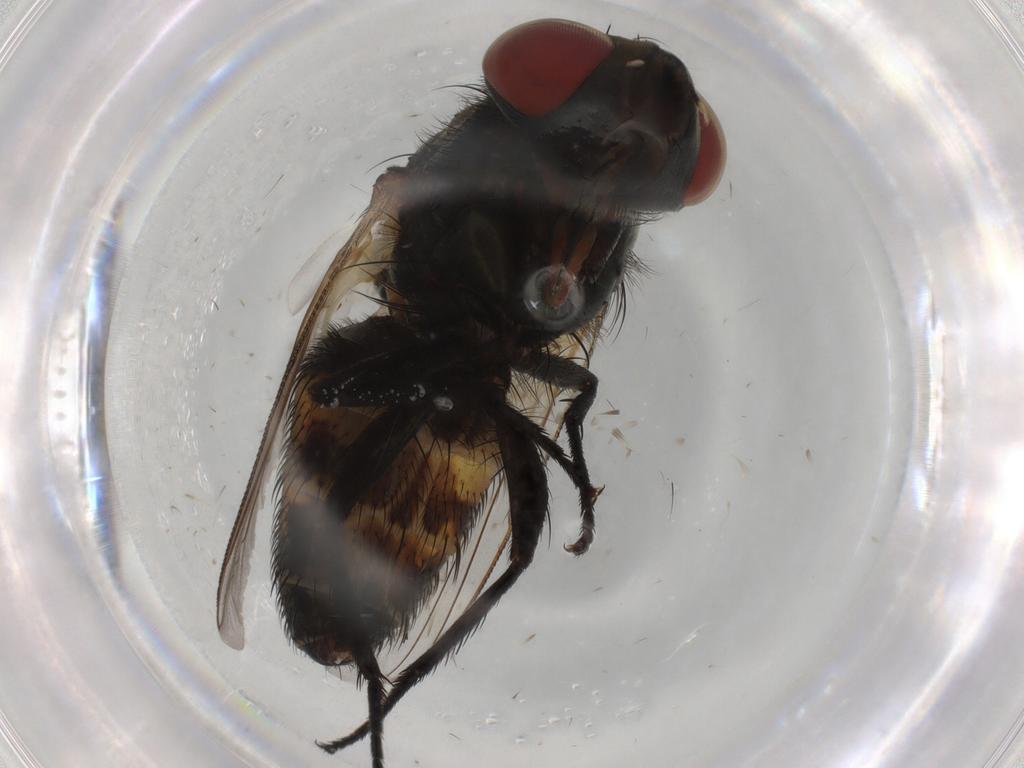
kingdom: Animalia
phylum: Arthropoda
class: Insecta
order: Diptera
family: Sarcophagidae
